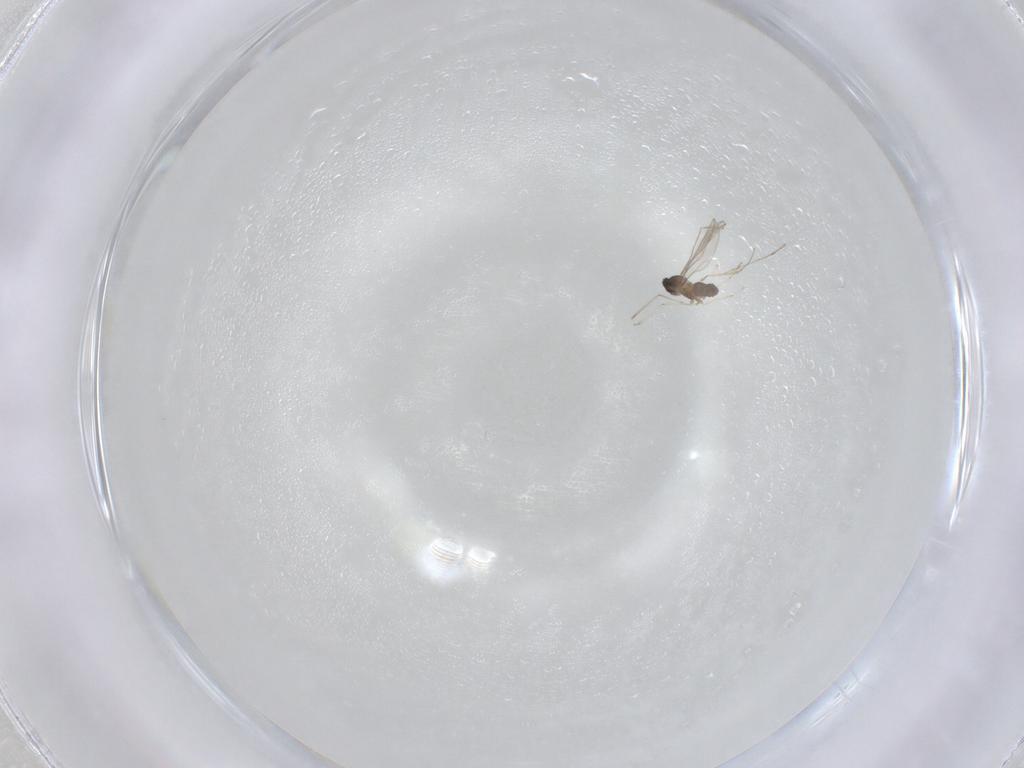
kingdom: Animalia
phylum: Arthropoda
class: Insecta
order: Diptera
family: Cecidomyiidae
